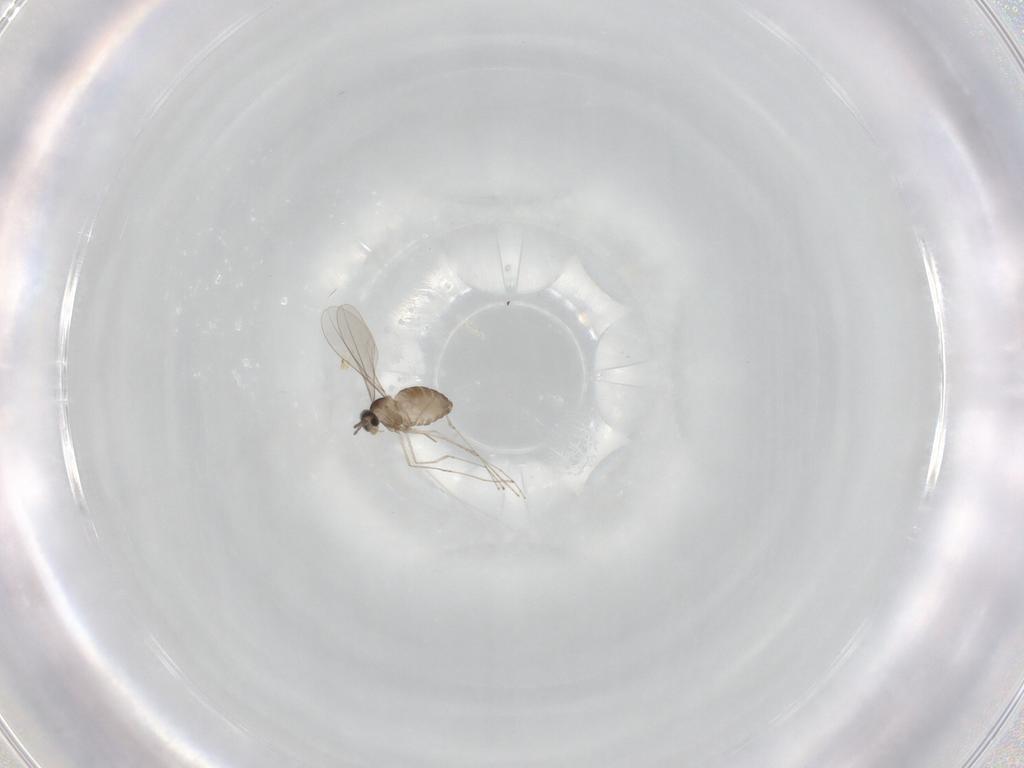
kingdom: Animalia
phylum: Arthropoda
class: Insecta
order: Diptera
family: Cecidomyiidae
